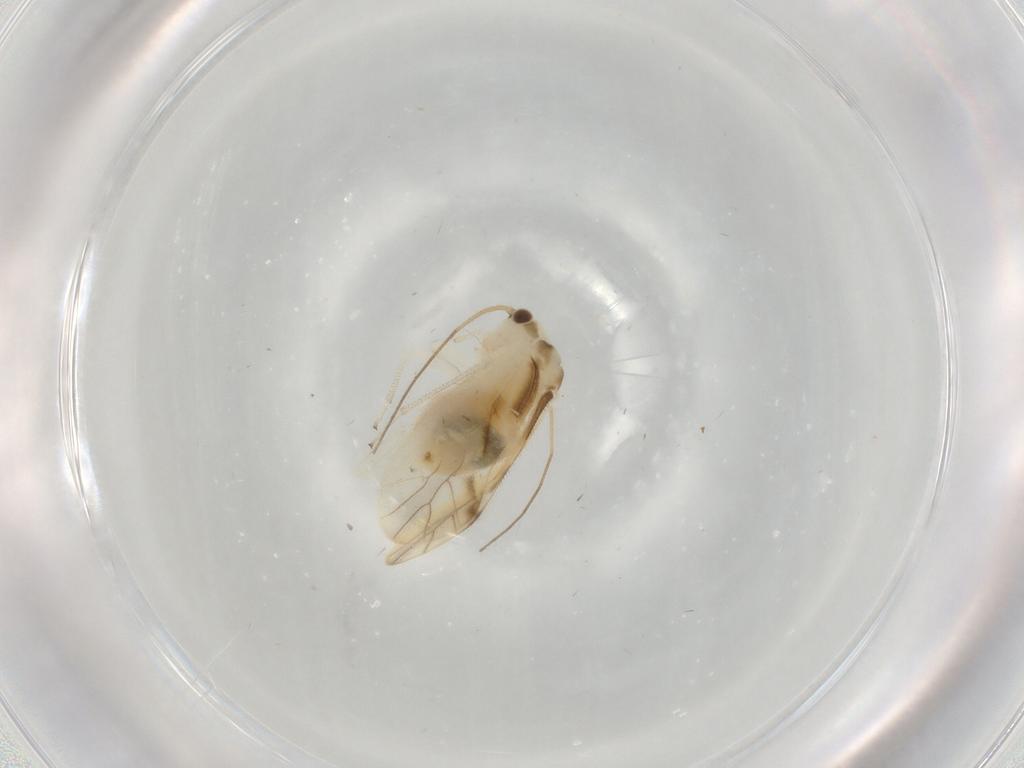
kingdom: Animalia
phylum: Arthropoda
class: Insecta
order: Psocodea
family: Caeciliusidae
